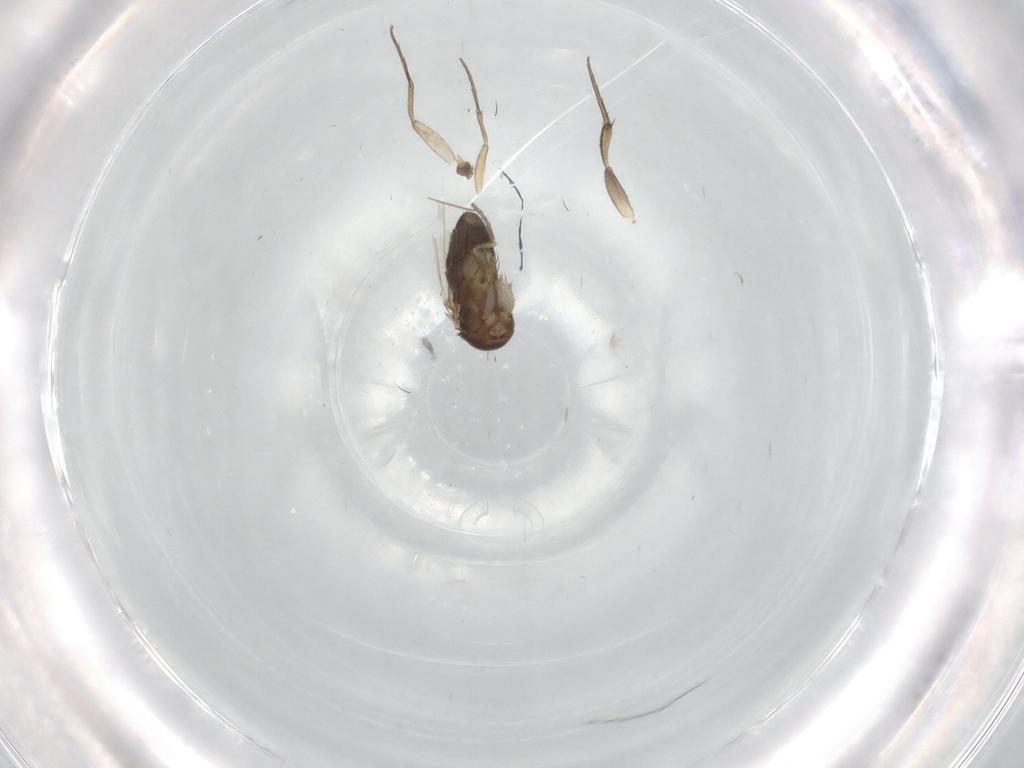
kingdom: Animalia
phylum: Arthropoda
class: Insecta
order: Diptera
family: Phoridae
